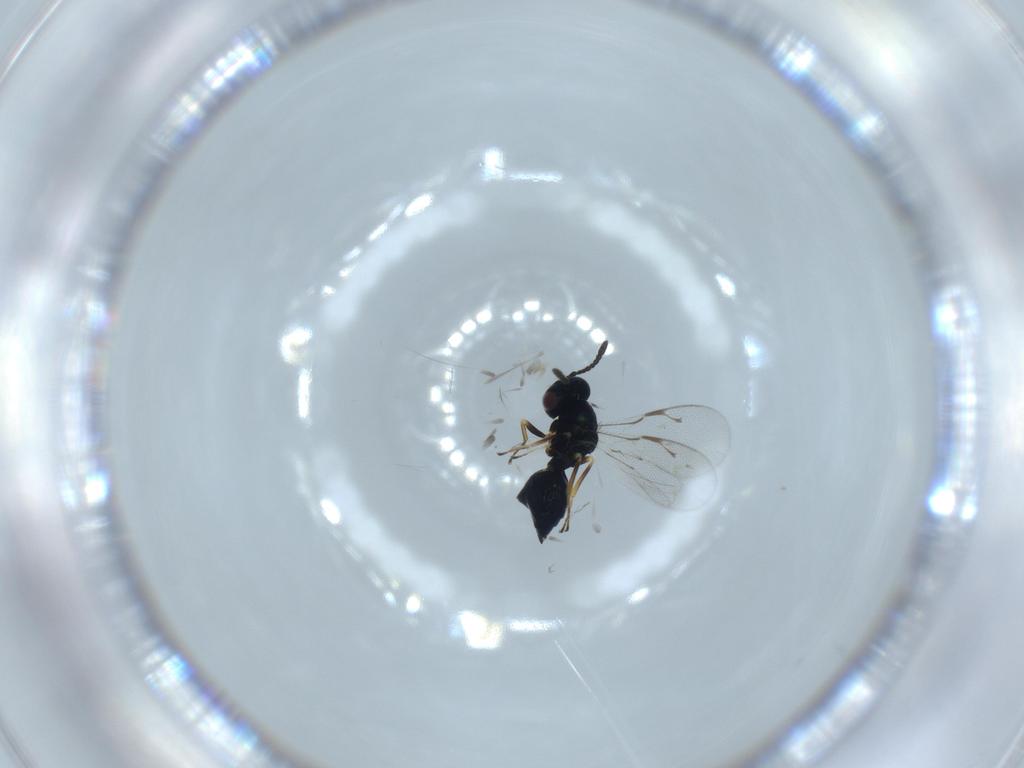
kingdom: Animalia
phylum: Arthropoda
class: Insecta
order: Hymenoptera
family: Pteromalidae
